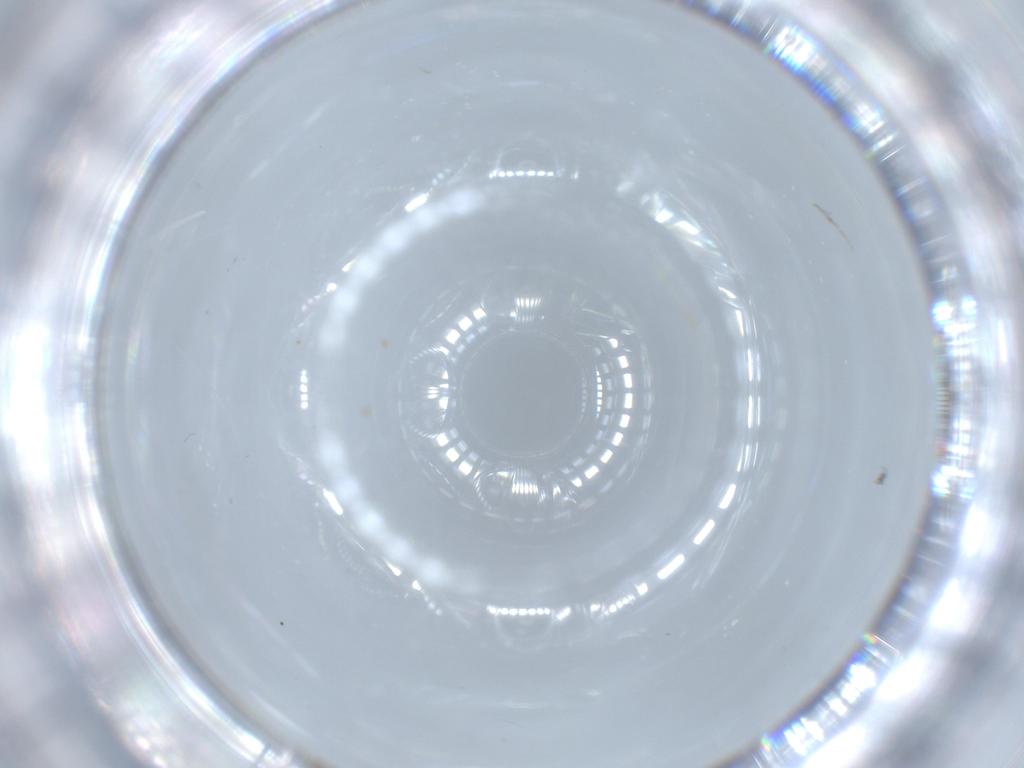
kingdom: Animalia
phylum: Arthropoda
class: Insecta
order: Diptera
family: Cecidomyiidae
